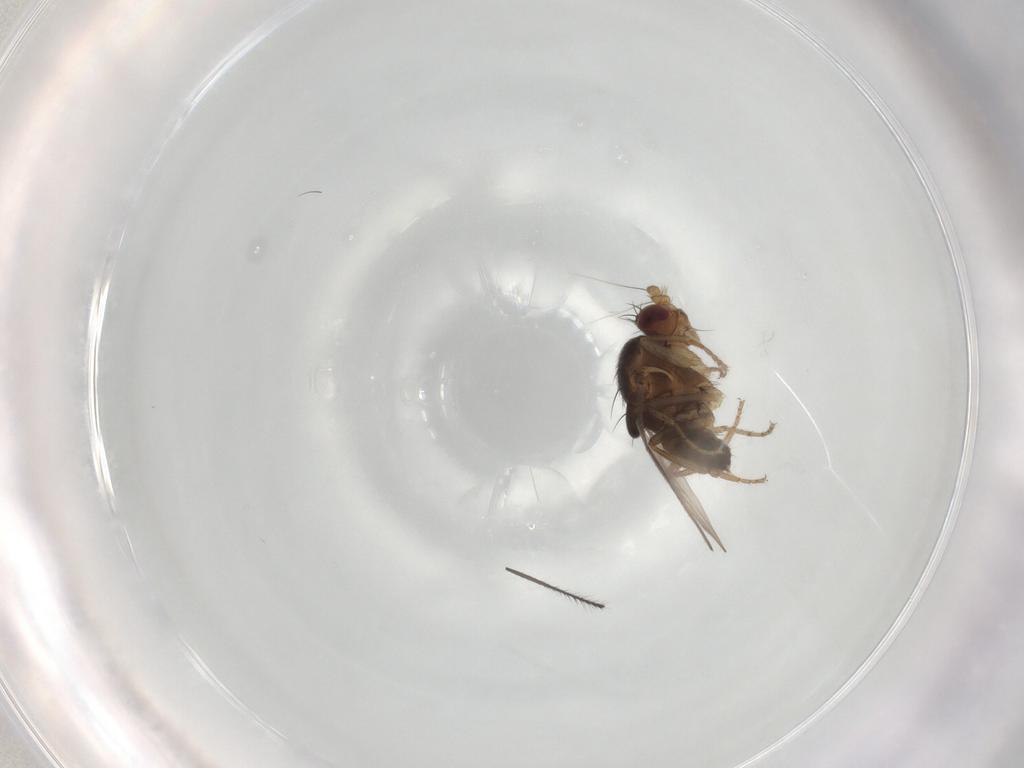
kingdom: Animalia
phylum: Arthropoda
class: Insecta
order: Diptera
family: Sphaeroceridae
